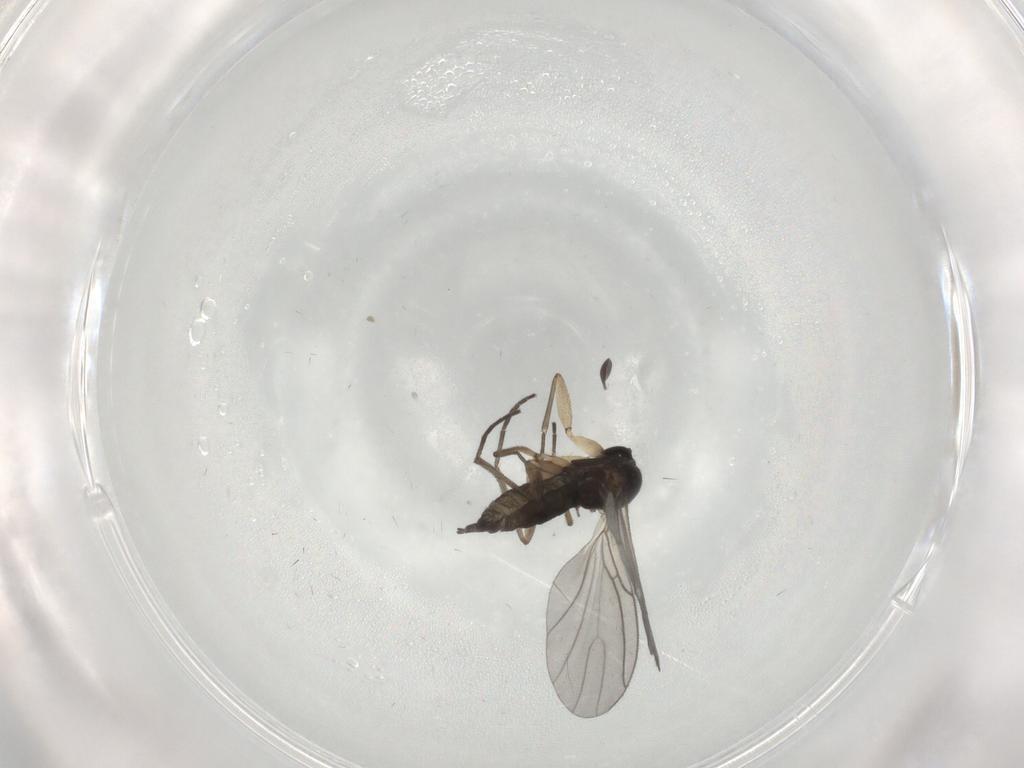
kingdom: Animalia
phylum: Arthropoda
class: Insecta
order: Diptera
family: Sciaridae
